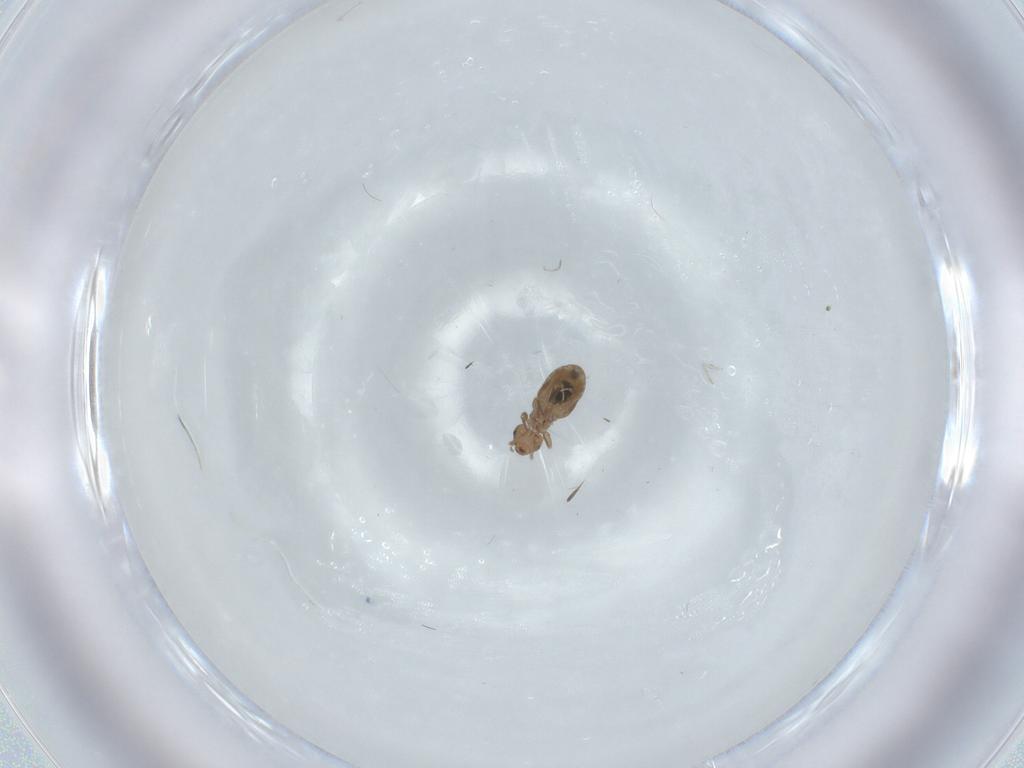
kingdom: Animalia
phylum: Arthropoda
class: Insecta
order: Psocodea
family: Liposcelididae
